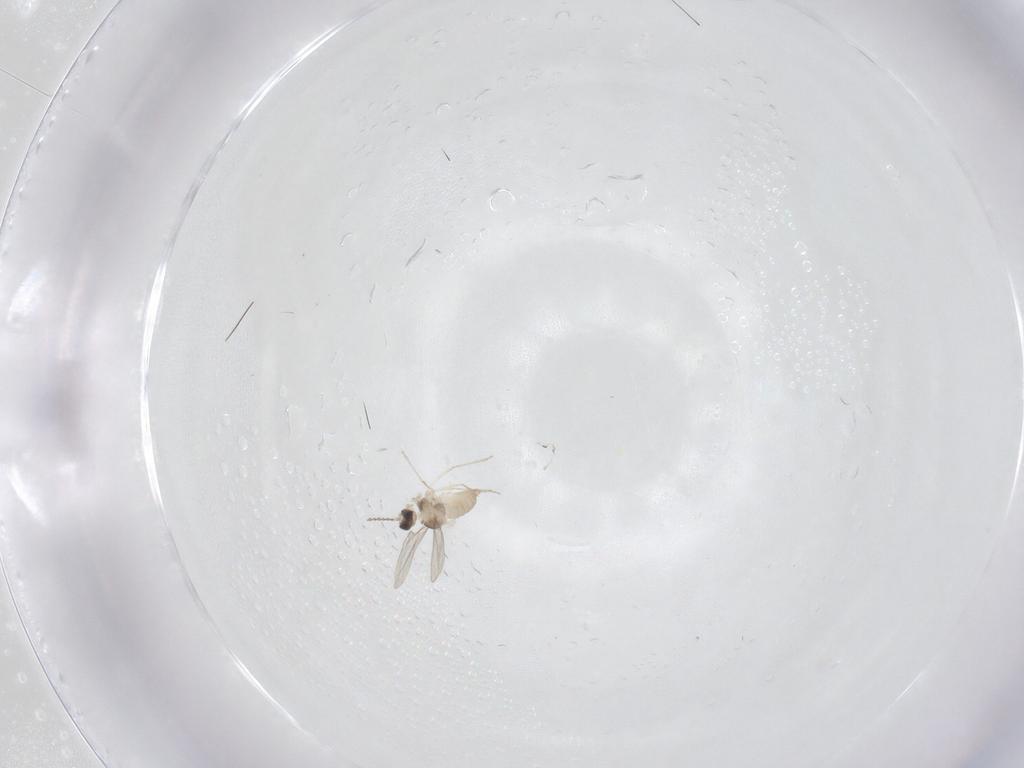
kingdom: Animalia
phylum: Arthropoda
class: Insecta
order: Diptera
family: Cecidomyiidae
